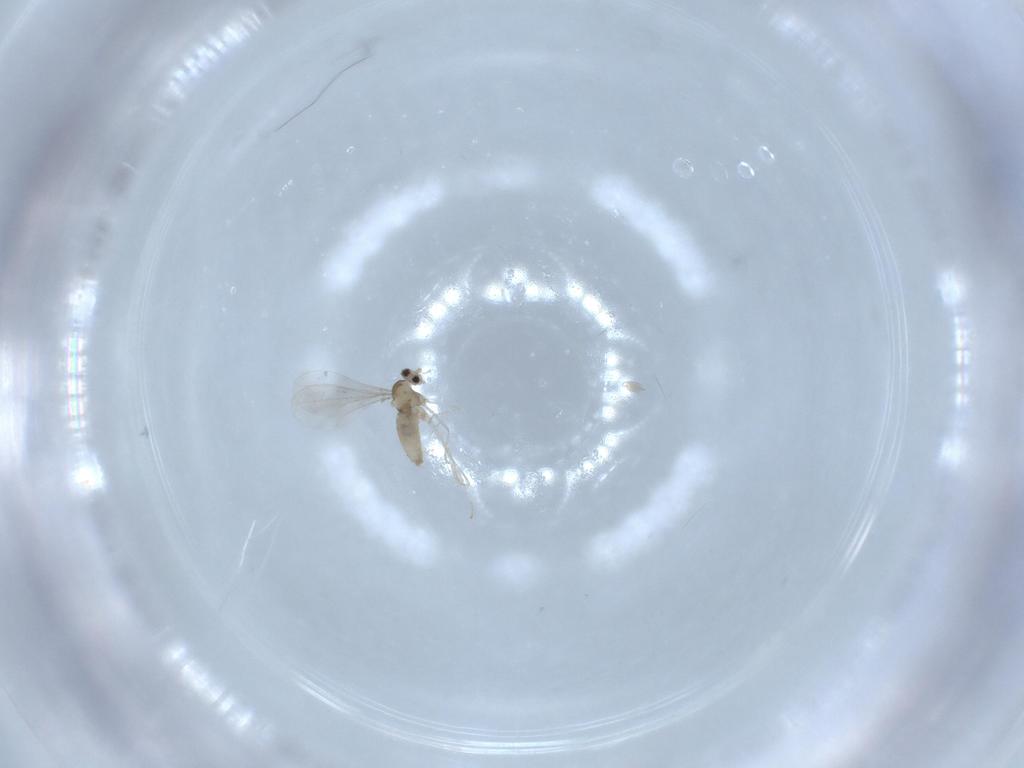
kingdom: Animalia
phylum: Arthropoda
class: Insecta
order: Diptera
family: Cecidomyiidae
